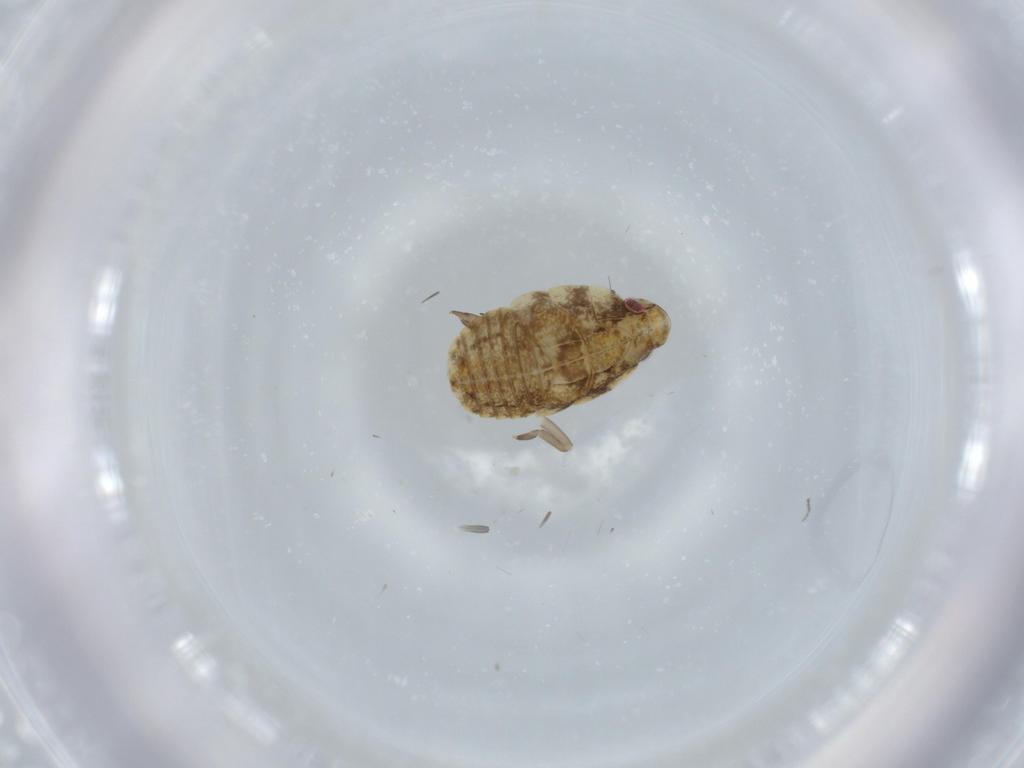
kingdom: Animalia
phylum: Arthropoda
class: Insecta
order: Hemiptera
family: Flatidae
